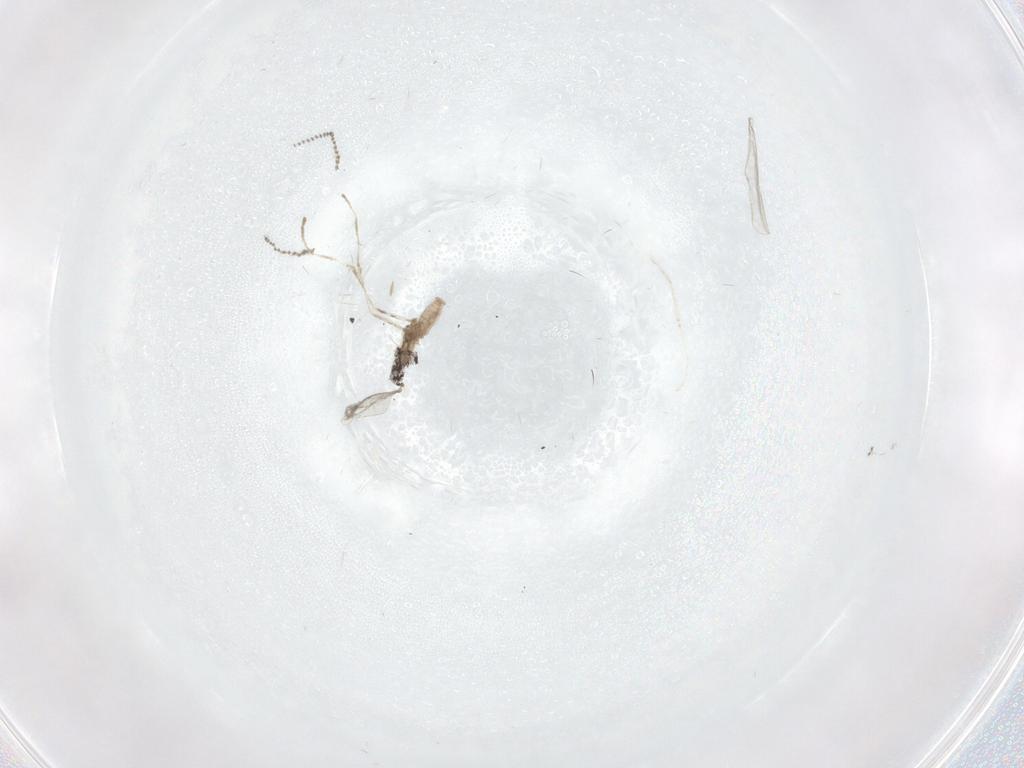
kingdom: Animalia
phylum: Arthropoda
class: Insecta
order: Diptera
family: Cecidomyiidae
